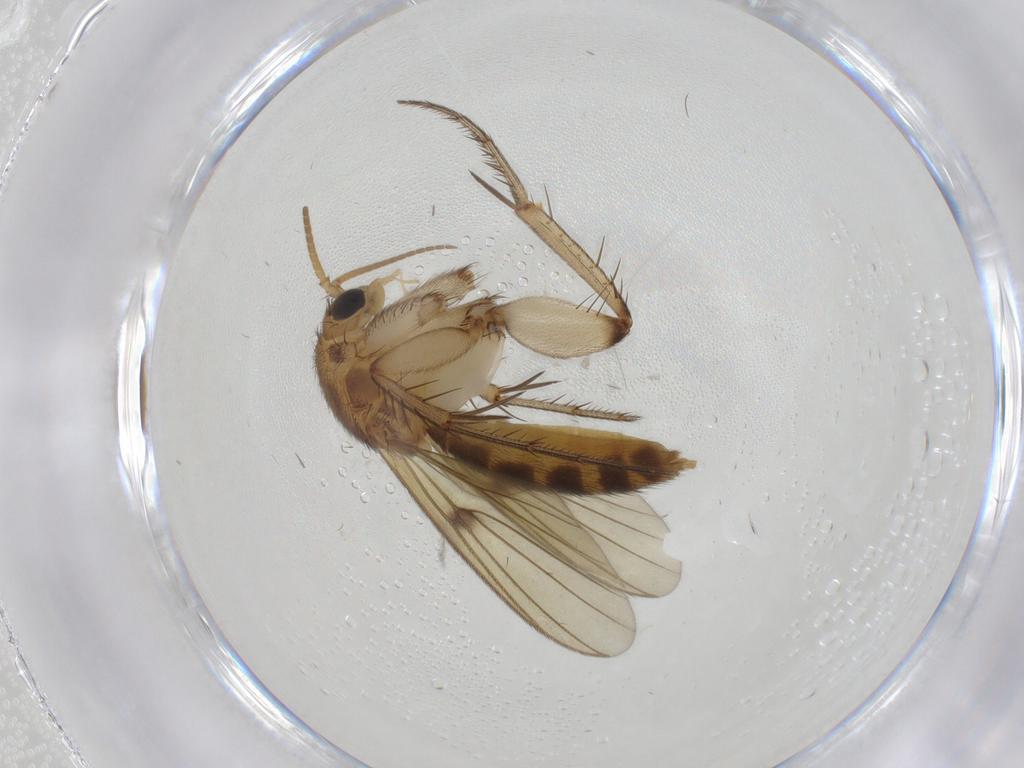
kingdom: Animalia
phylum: Arthropoda
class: Insecta
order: Diptera
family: Mycetophilidae
